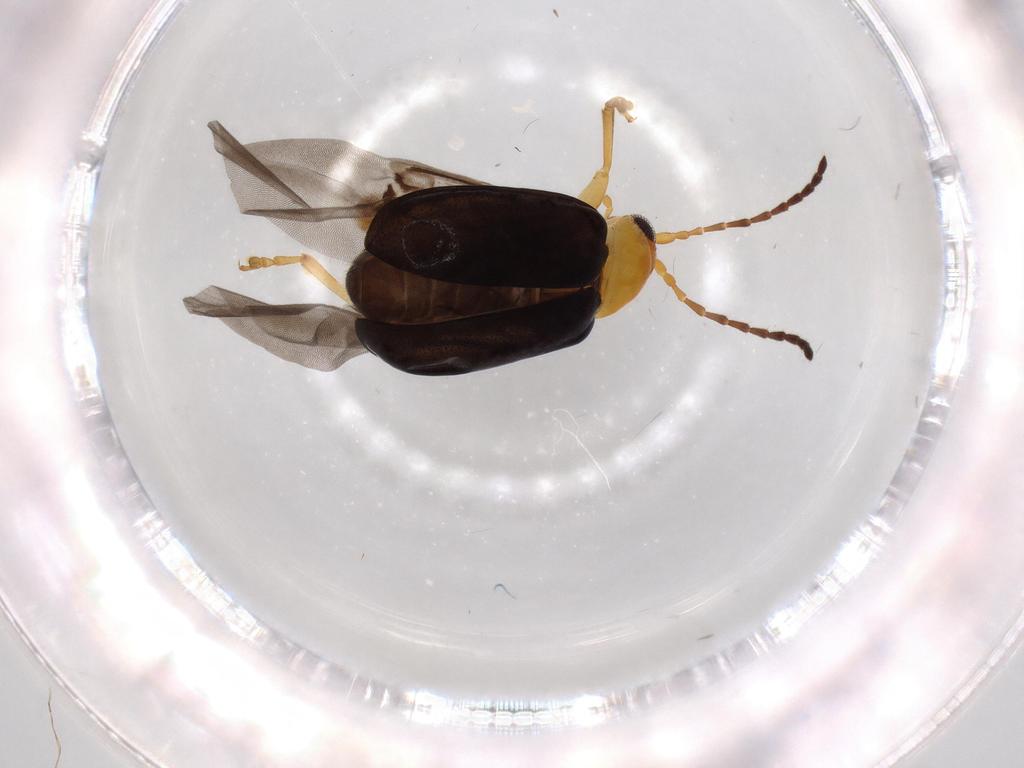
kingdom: Animalia
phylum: Arthropoda
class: Insecta
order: Coleoptera
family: Chrysomelidae
